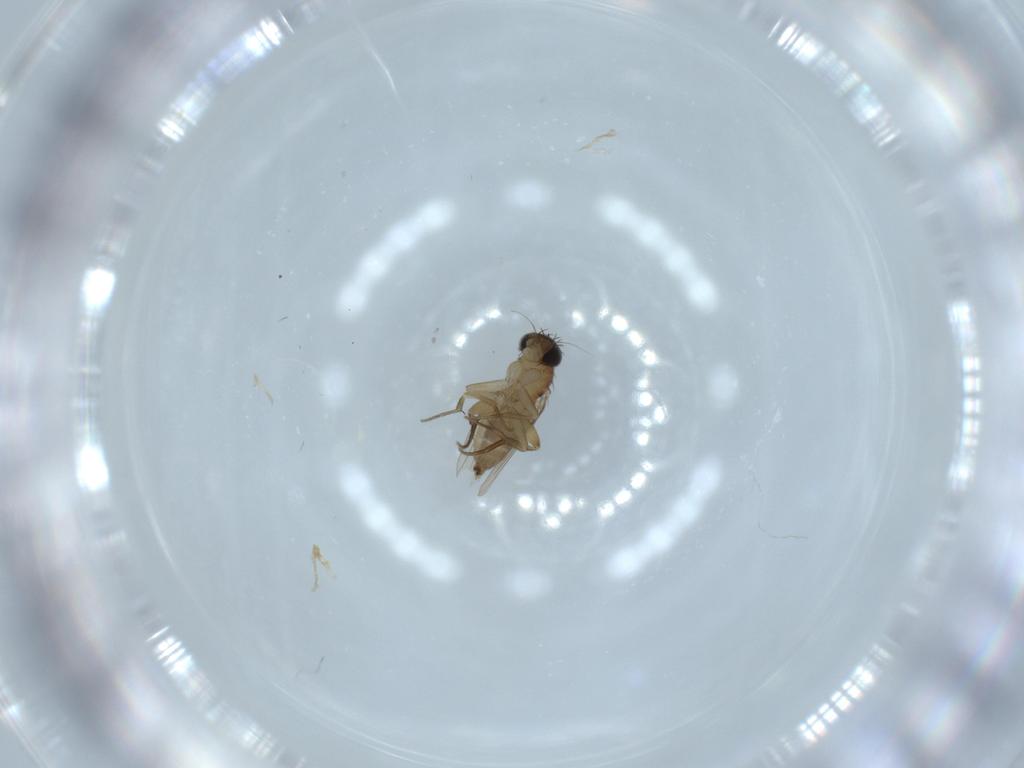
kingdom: Animalia
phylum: Arthropoda
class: Insecta
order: Diptera
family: Phoridae
